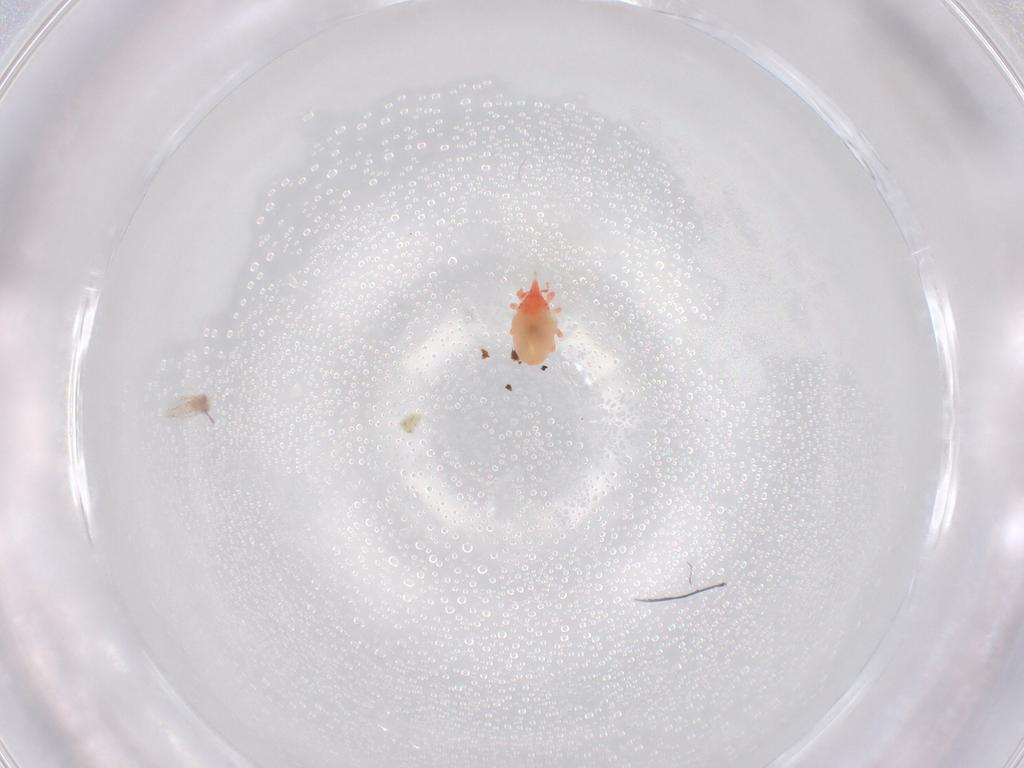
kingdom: Animalia
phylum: Arthropoda
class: Arachnida
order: Trombidiformes
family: Bdellidae
